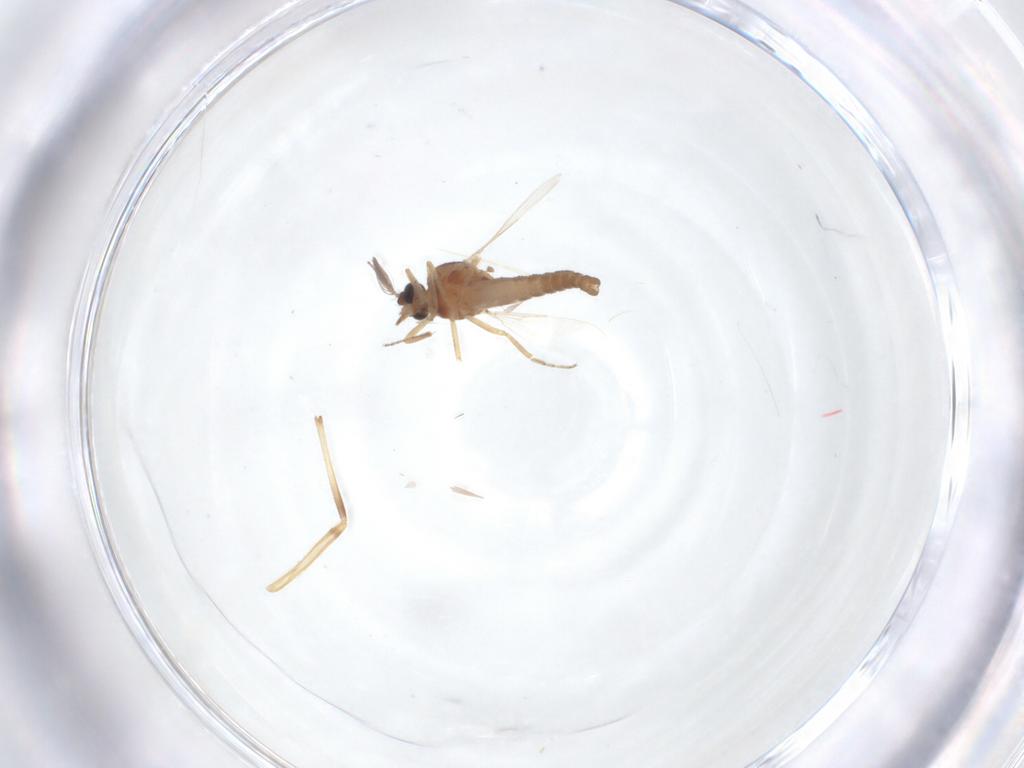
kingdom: Animalia
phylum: Arthropoda
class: Insecta
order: Diptera
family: Chironomidae
